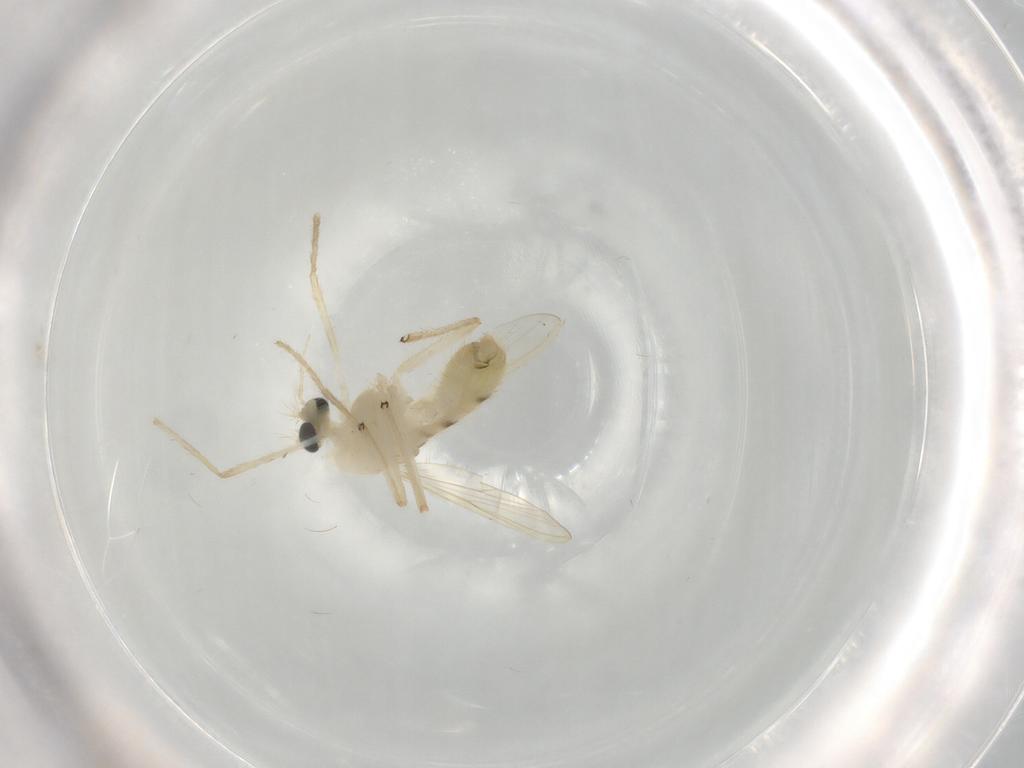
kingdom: Animalia
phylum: Arthropoda
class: Insecta
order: Diptera
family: Chironomidae
